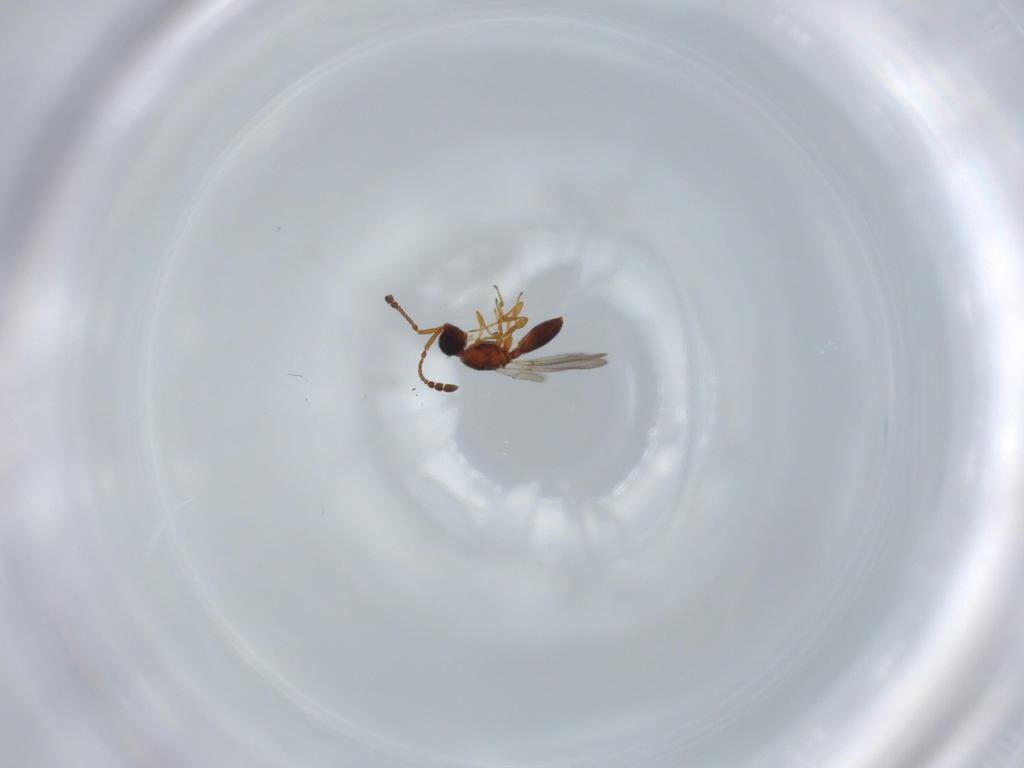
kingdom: Animalia
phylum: Arthropoda
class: Insecta
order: Hymenoptera
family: Diapriidae
